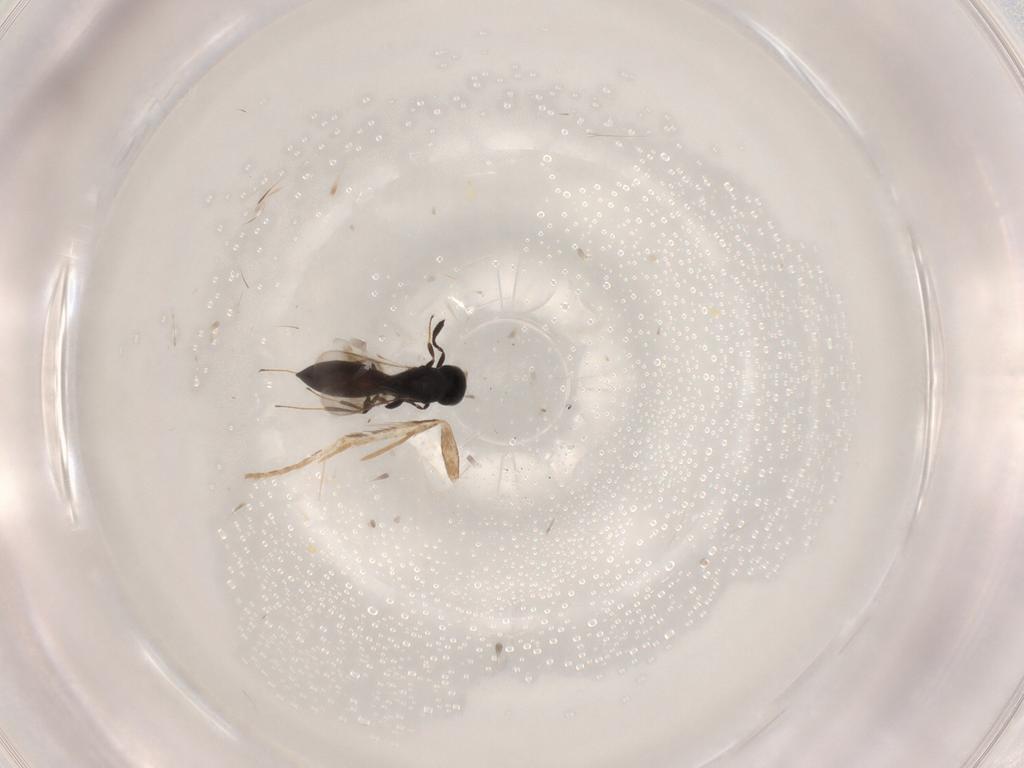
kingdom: Animalia
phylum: Arthropoda
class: Insecta
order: Hymenoptera
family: Scelionidae
